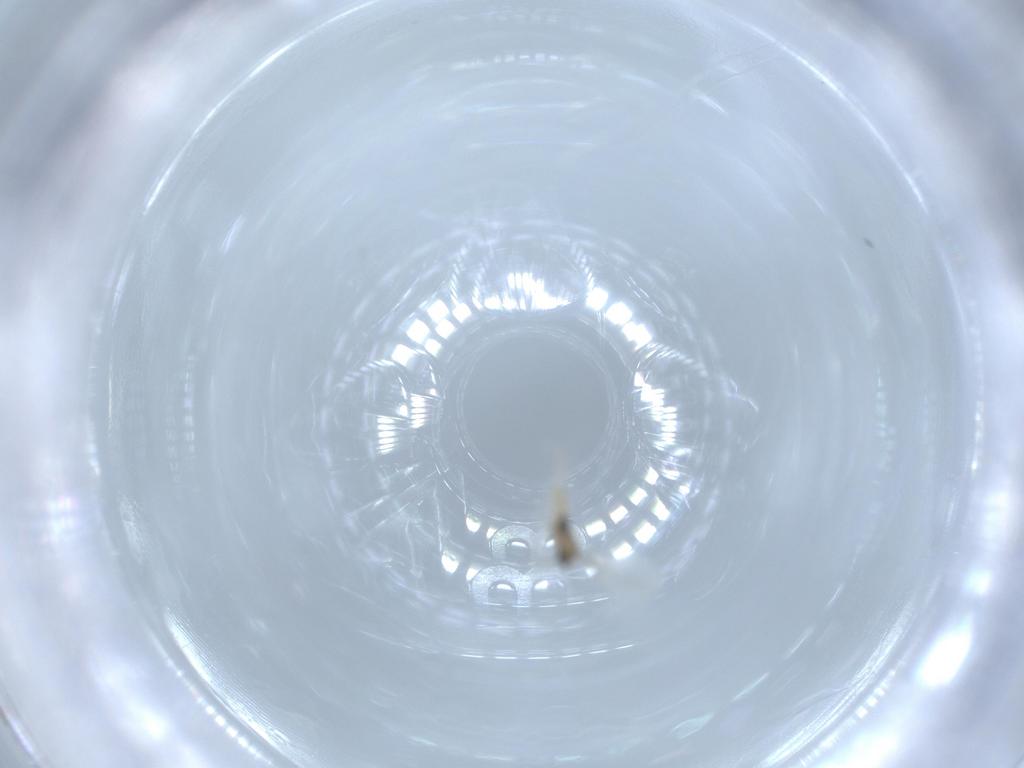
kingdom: Animalia
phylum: Arthropoda
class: Insecta
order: Diptera
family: Cecidomyiidae
